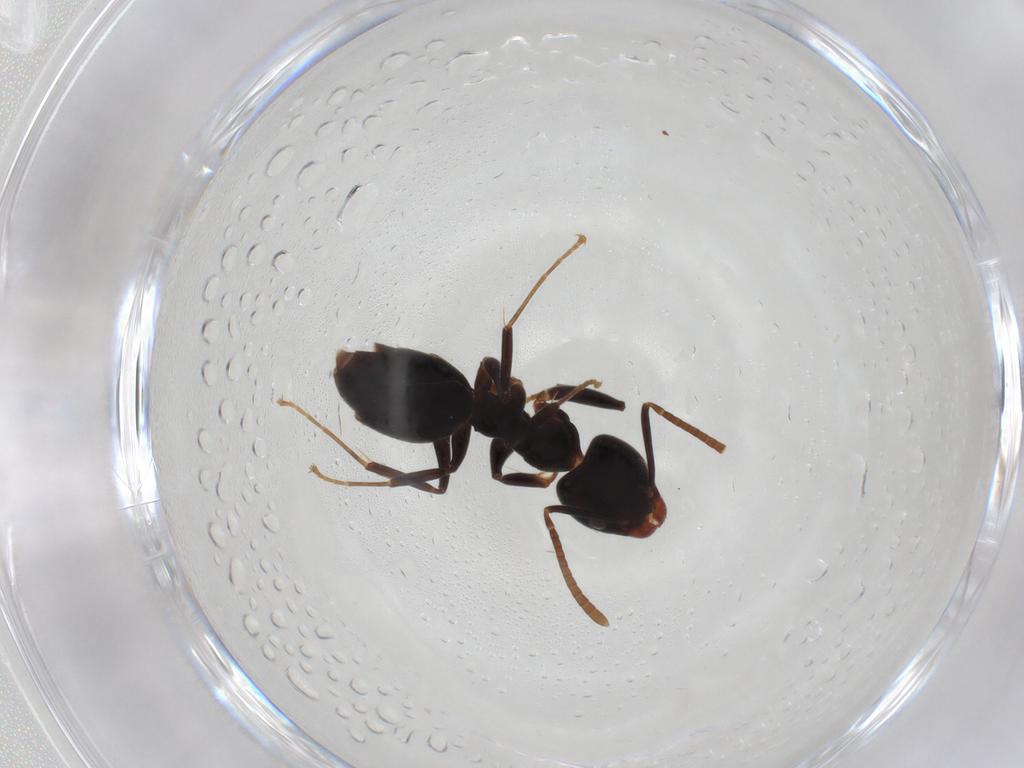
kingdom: Animalia
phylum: Arthropoda
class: Insecta
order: Hymenoptera
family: Formicidae
